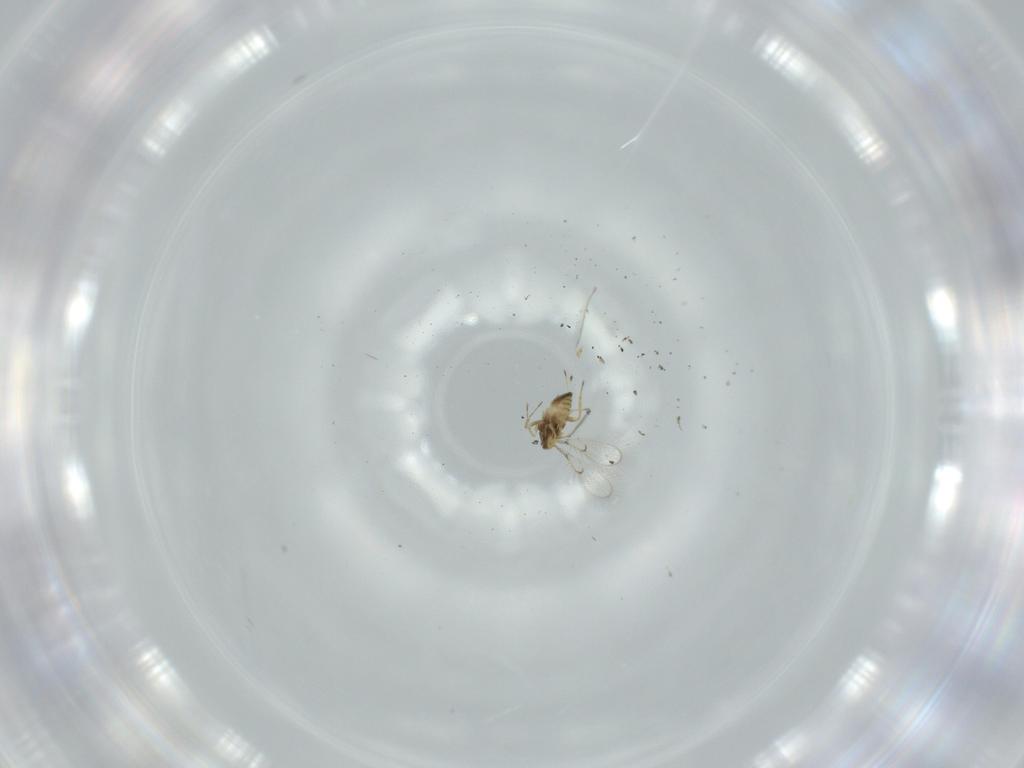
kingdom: Animalia
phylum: Arthropoda
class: Insecta
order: Hymenoptera
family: Trichogrammatidae
